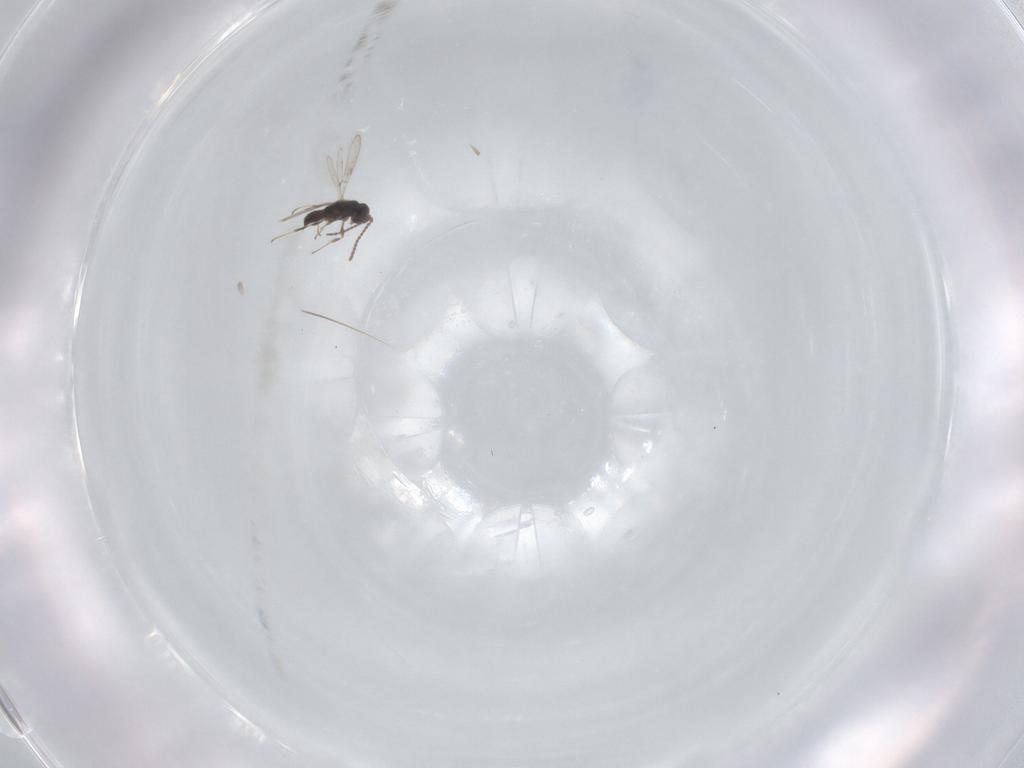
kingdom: Animalia
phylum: Arthropoda
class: Insecta
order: Hymenoptera
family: Scelionidae
